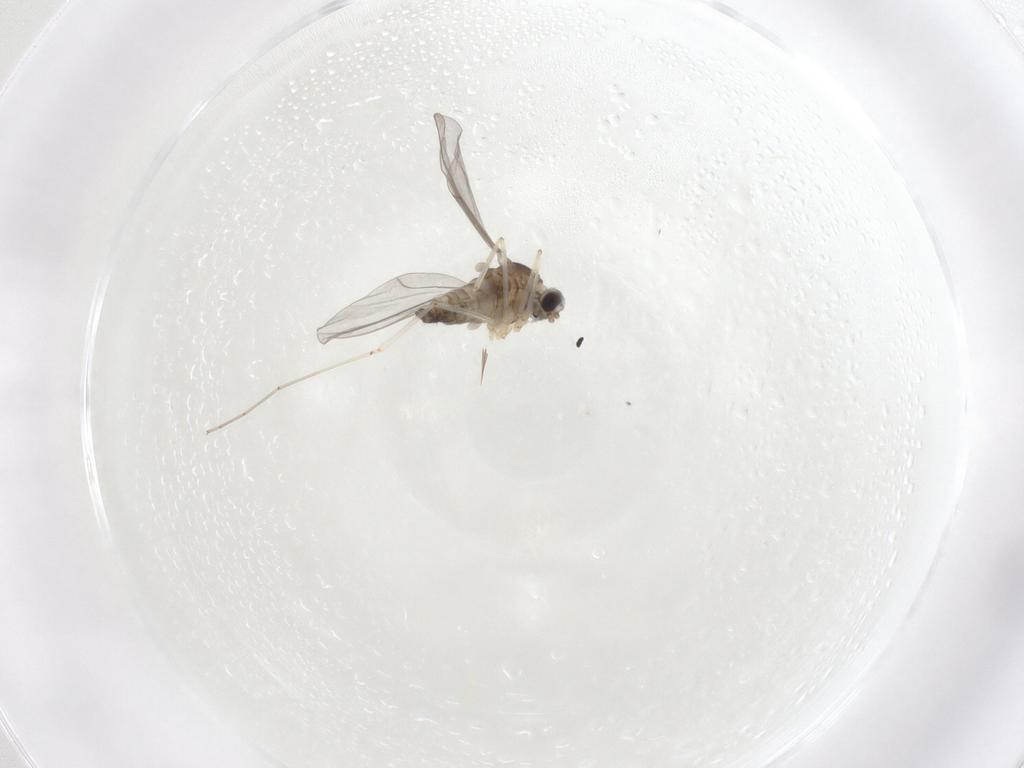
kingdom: Animalia
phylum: Arthropoda
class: Insecta
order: Diptera
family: Cecidomyiidae
